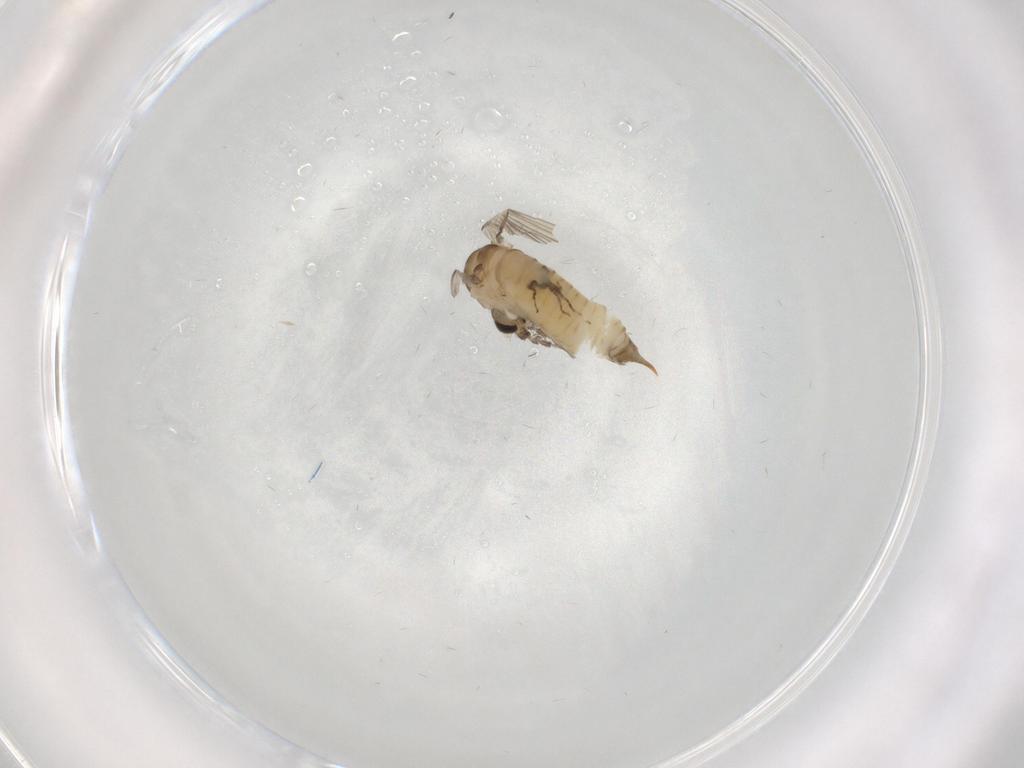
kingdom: Animalia
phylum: Arthropoda
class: Insecta
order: Diptera
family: Psychodidae
